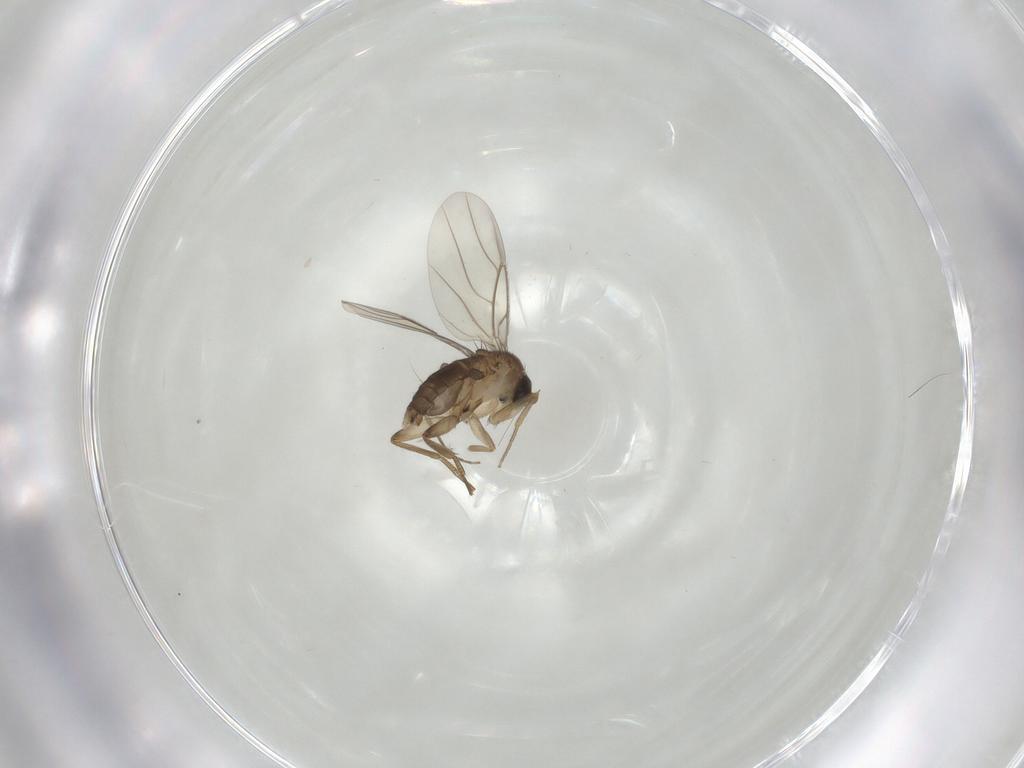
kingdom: Animalia
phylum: Arthropoda
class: Insecta
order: Diptera
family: Phoridae
